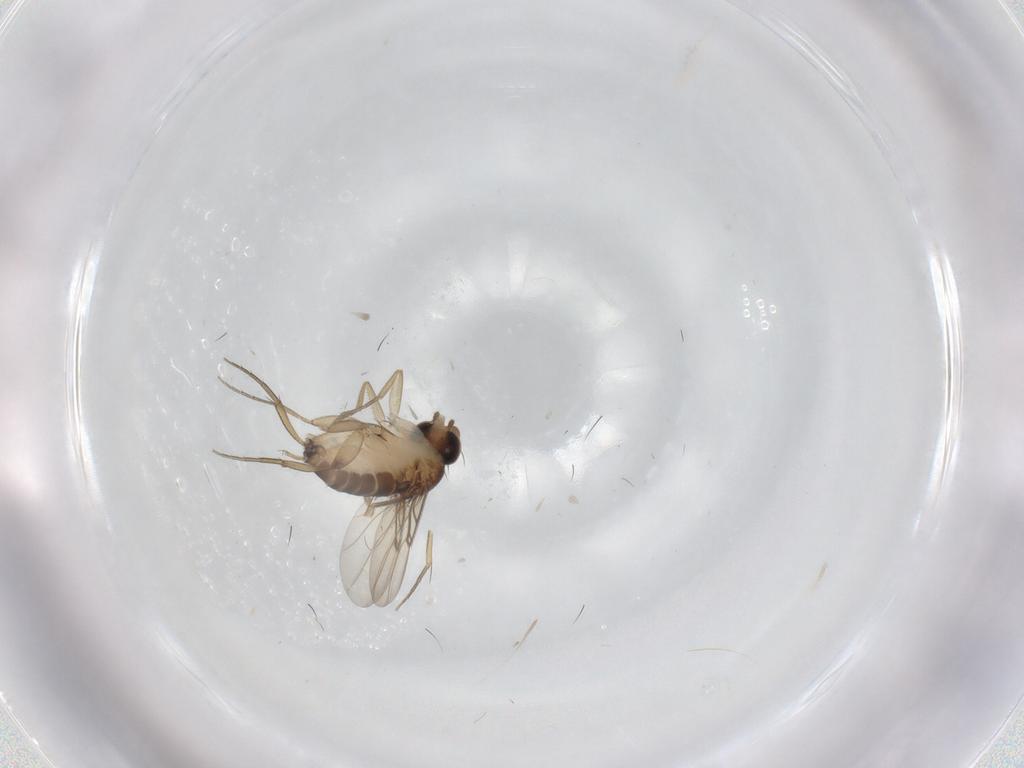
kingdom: Animalia
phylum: Arthropoda
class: Insecta
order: Diptera
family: Phoridae
